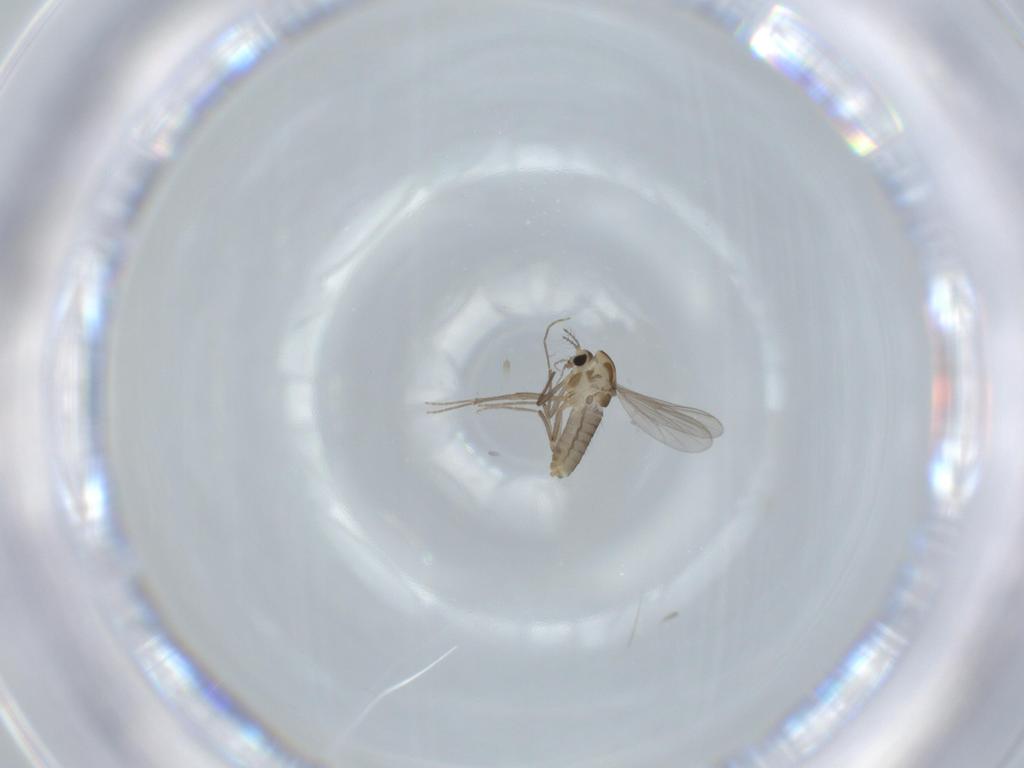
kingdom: Animalia
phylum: Arthropoda
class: Insecta
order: Diptera
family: Chironomidae
